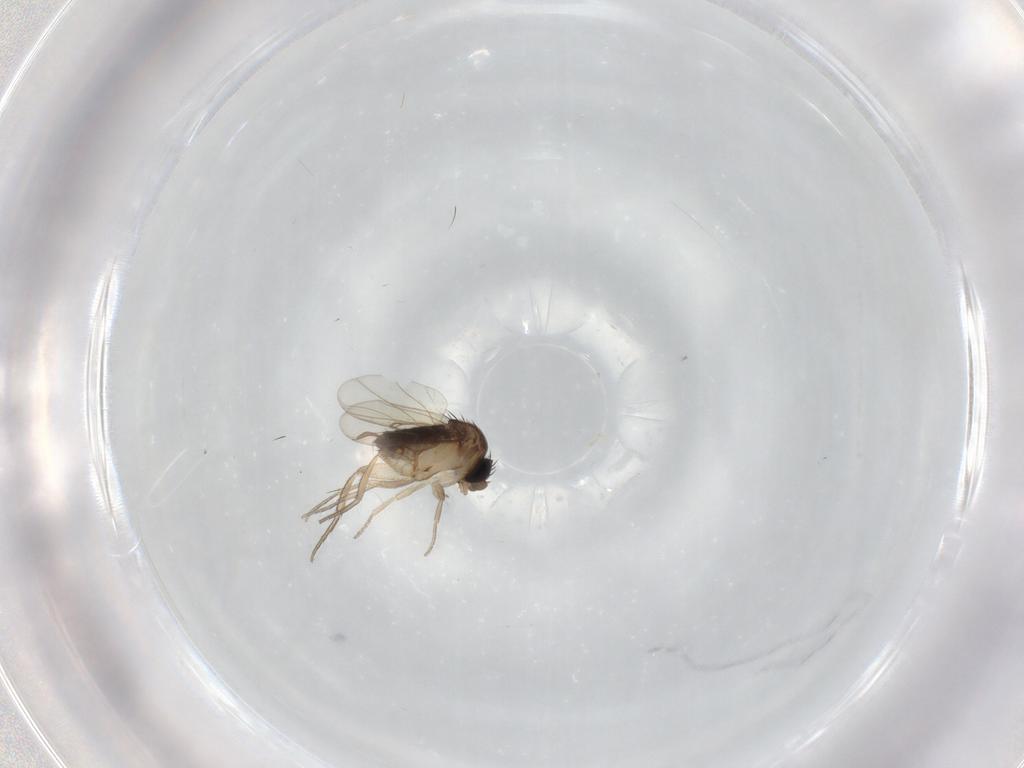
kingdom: Animalia
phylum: Arthropoda
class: Insecta
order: Diptera
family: Phoridae
